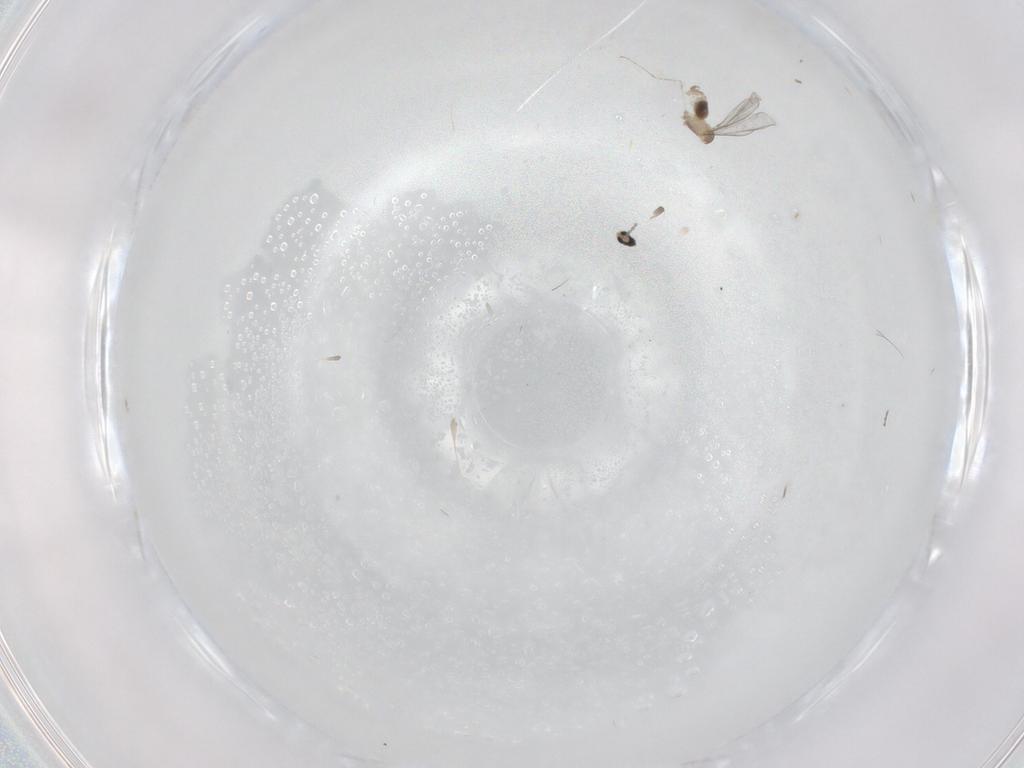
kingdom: Animalia
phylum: Arthropoda
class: Insecta
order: Diptera
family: Cecidomyiidae
